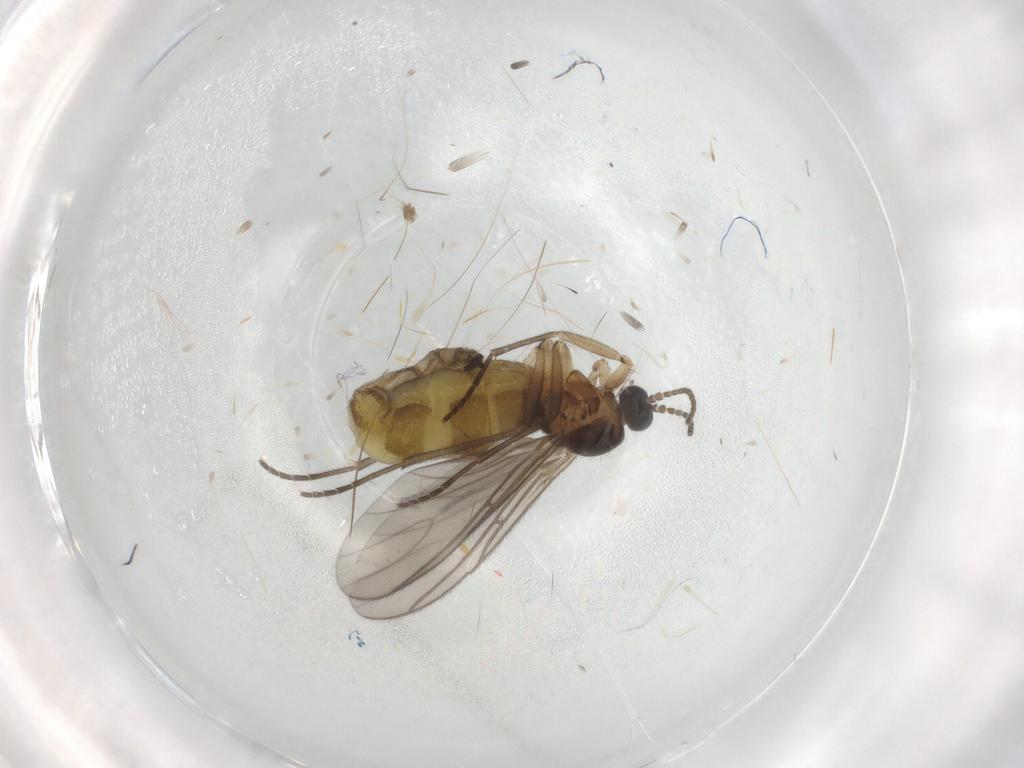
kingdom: Animalia
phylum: Arthropoda
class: Insecta
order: Diptera
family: Sciaridae
